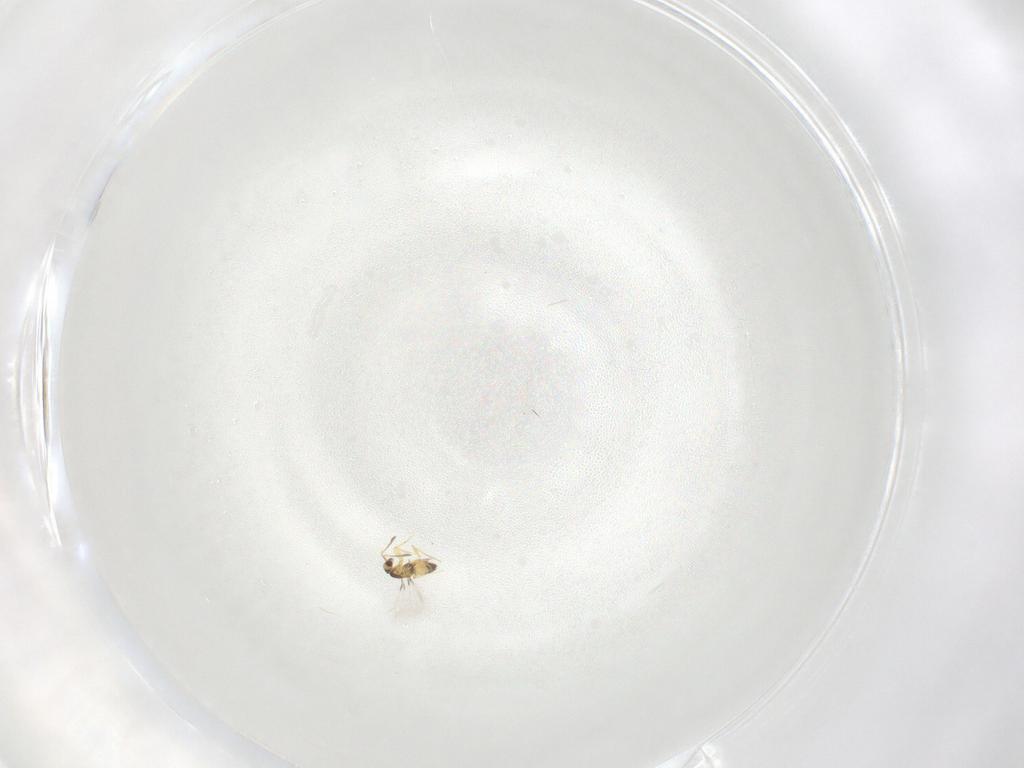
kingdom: Animalia
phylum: Arthropoda
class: Insecta
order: Hymenoptera
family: Mymaridae
